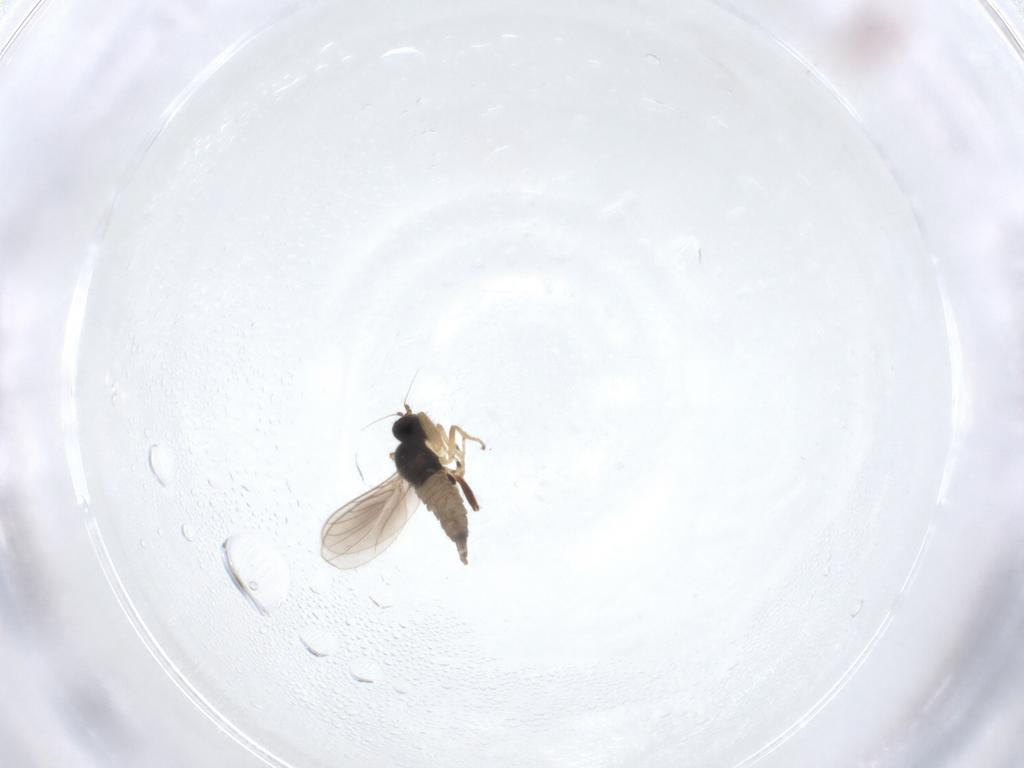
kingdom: Animalia
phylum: Arthropoda
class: Insecta
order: Diptera
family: Hybotidae
